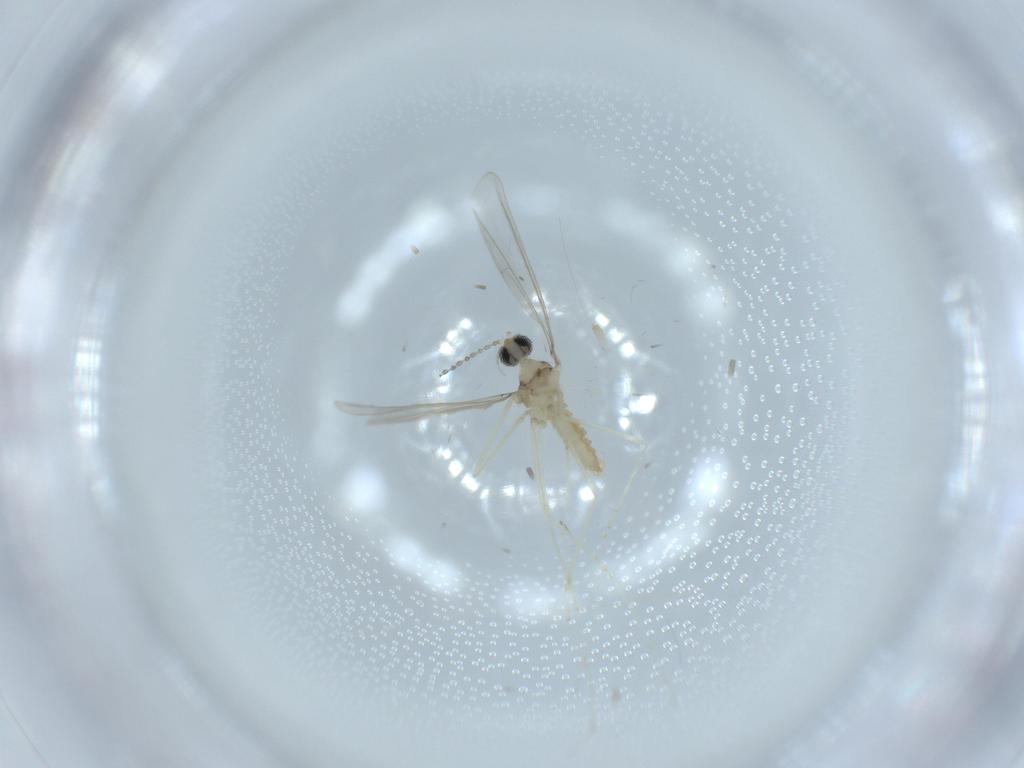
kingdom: Animalia
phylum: Arthropoda
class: Insecta
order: Diptera
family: Cecidomyiidae
